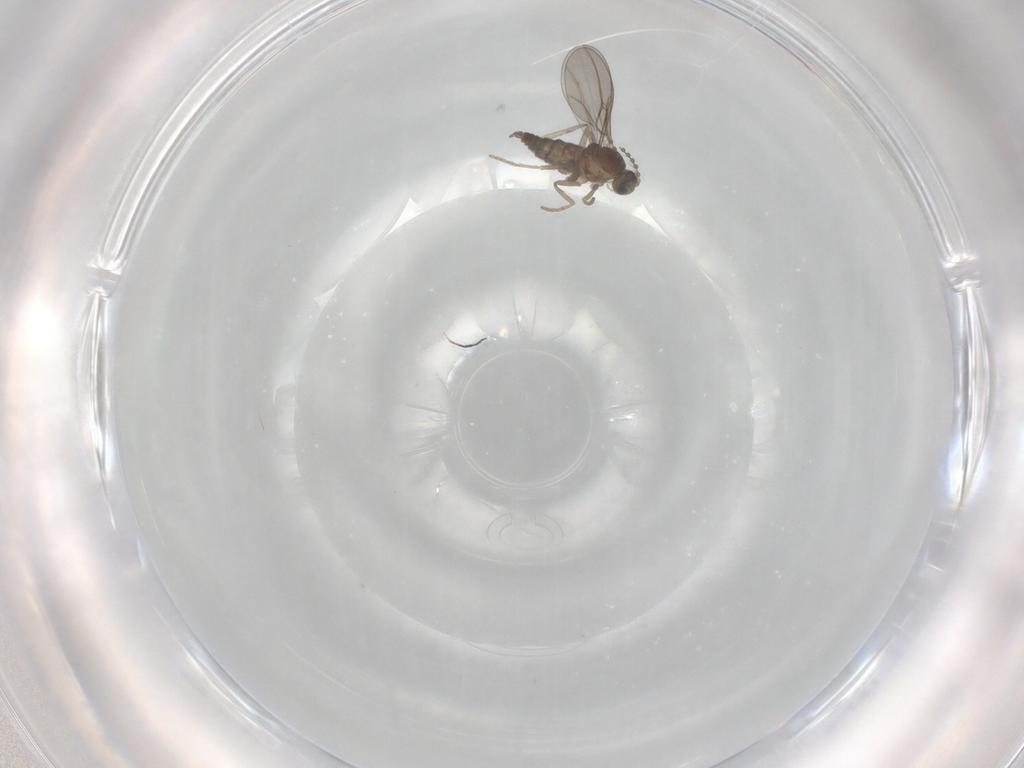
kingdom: Animalia
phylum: Arthropoda
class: Insecta
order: Diptera
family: Cecidomyiidae
